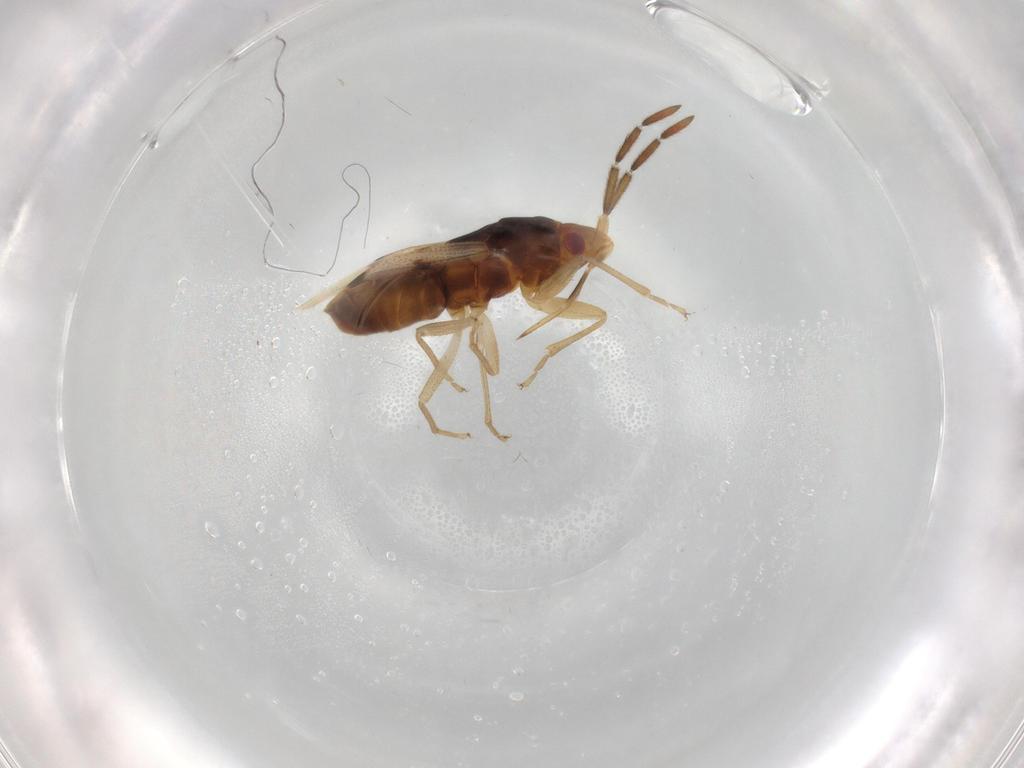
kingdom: Animalia
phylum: Arthropoda
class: Insecta
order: Hemiptera
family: Rhyparochromidae
